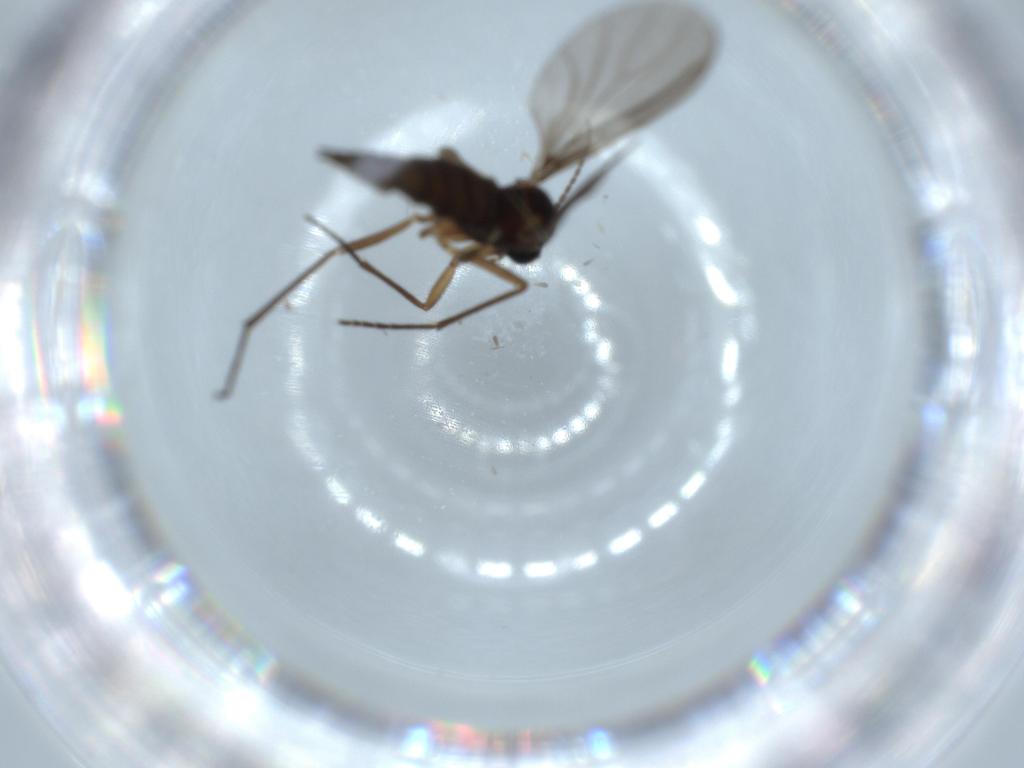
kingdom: Animalia
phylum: Arthropoda
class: Insecta
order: Diptera
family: Sciaridae
